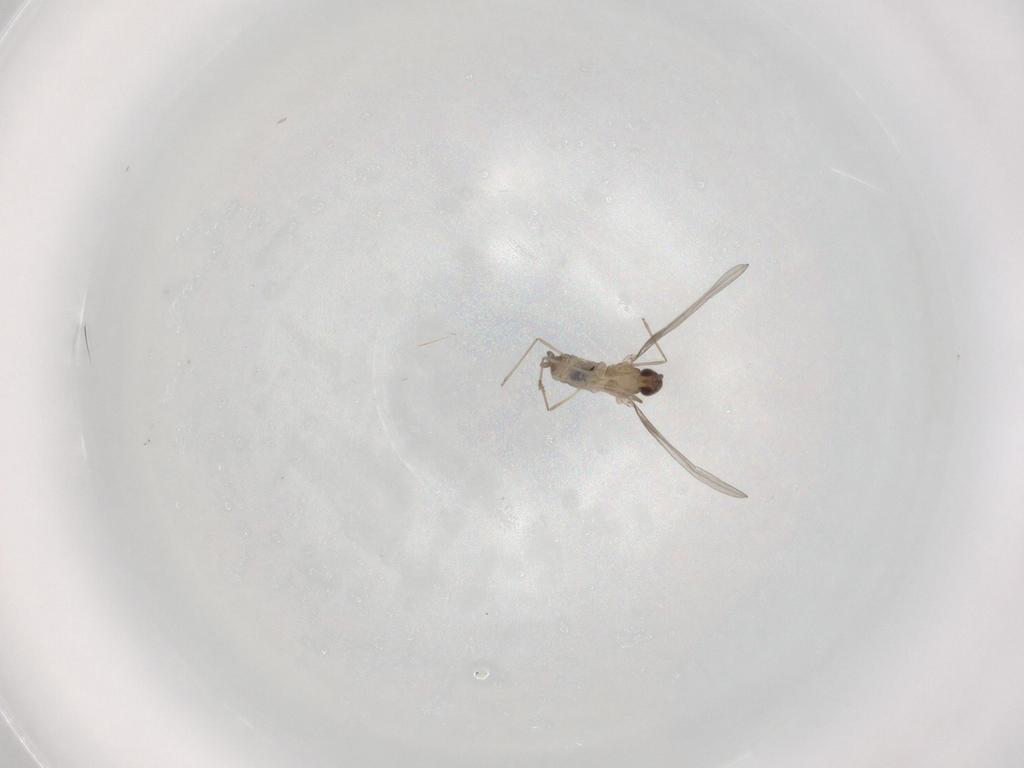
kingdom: Animalia
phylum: Arthropoda
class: Insecta
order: Diptera
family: Cecidomyiidae
